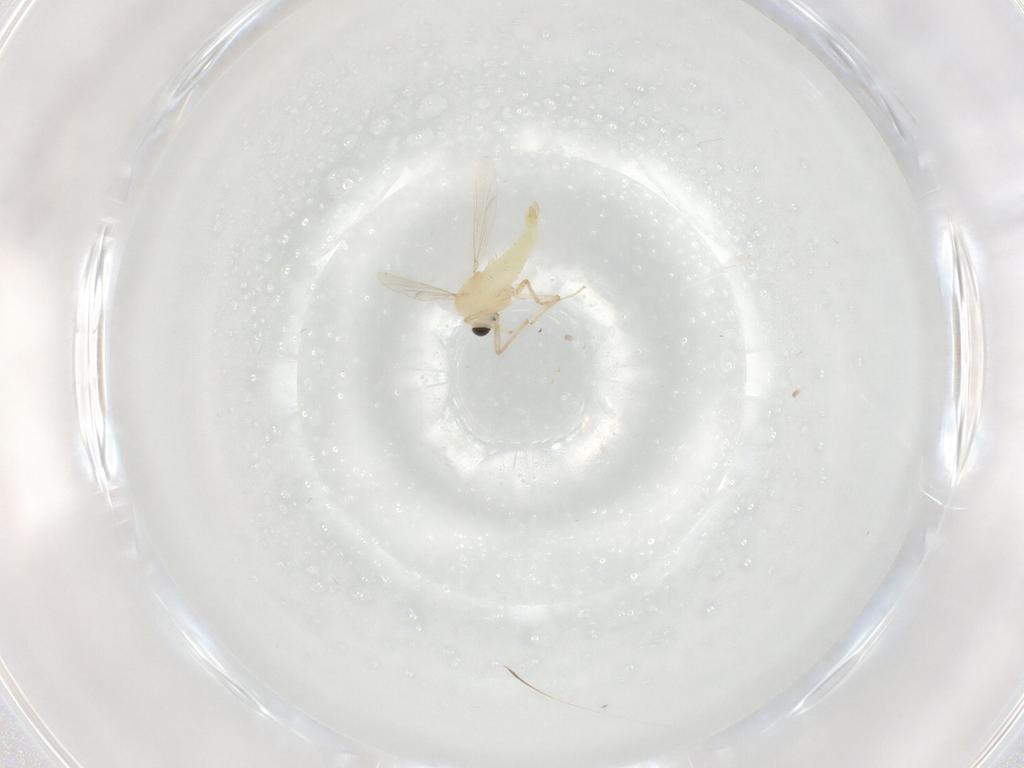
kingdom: Animalia
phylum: Arthropoda
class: Insecta
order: Diptera
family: Chironomidae
